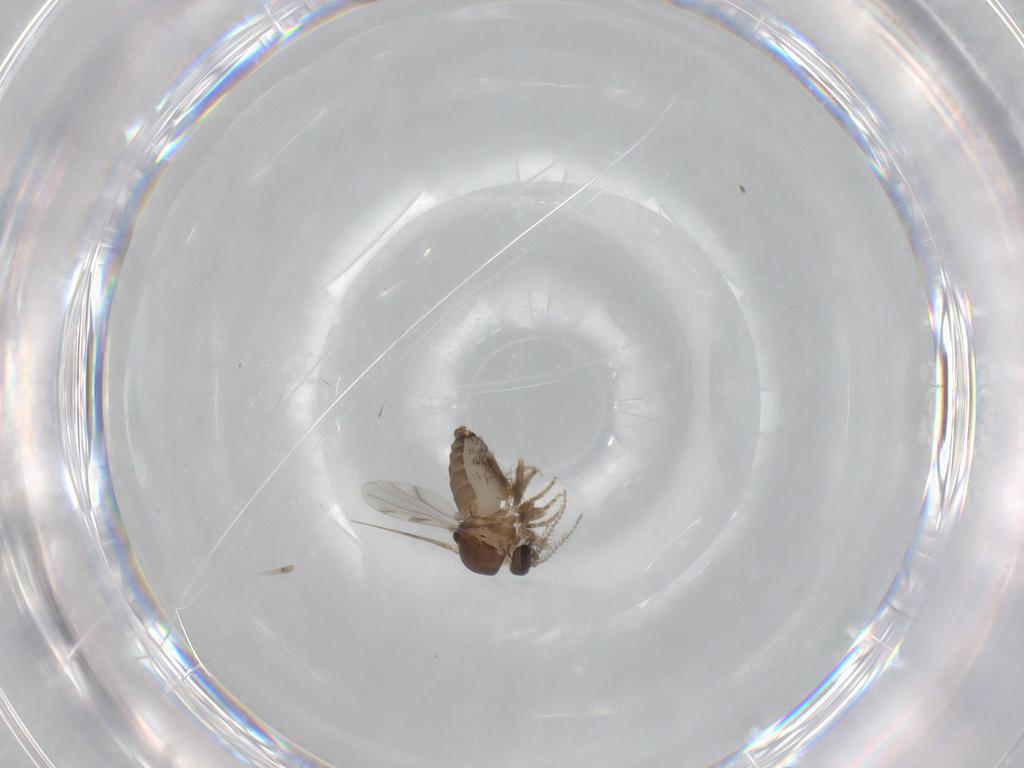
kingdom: Animalia
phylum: Arthropoda
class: Insecta
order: Diptera
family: Ceratopogonidae
